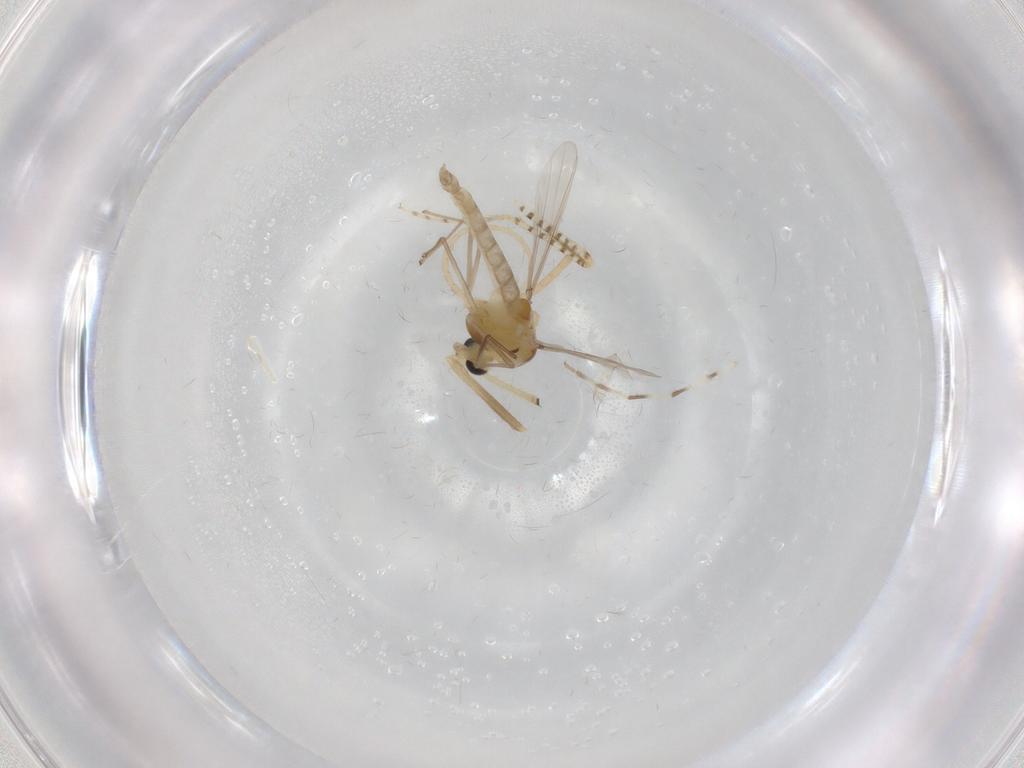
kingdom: Animalia
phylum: Arthropoda
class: Insecta
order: Diptera
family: Chaoboridae
